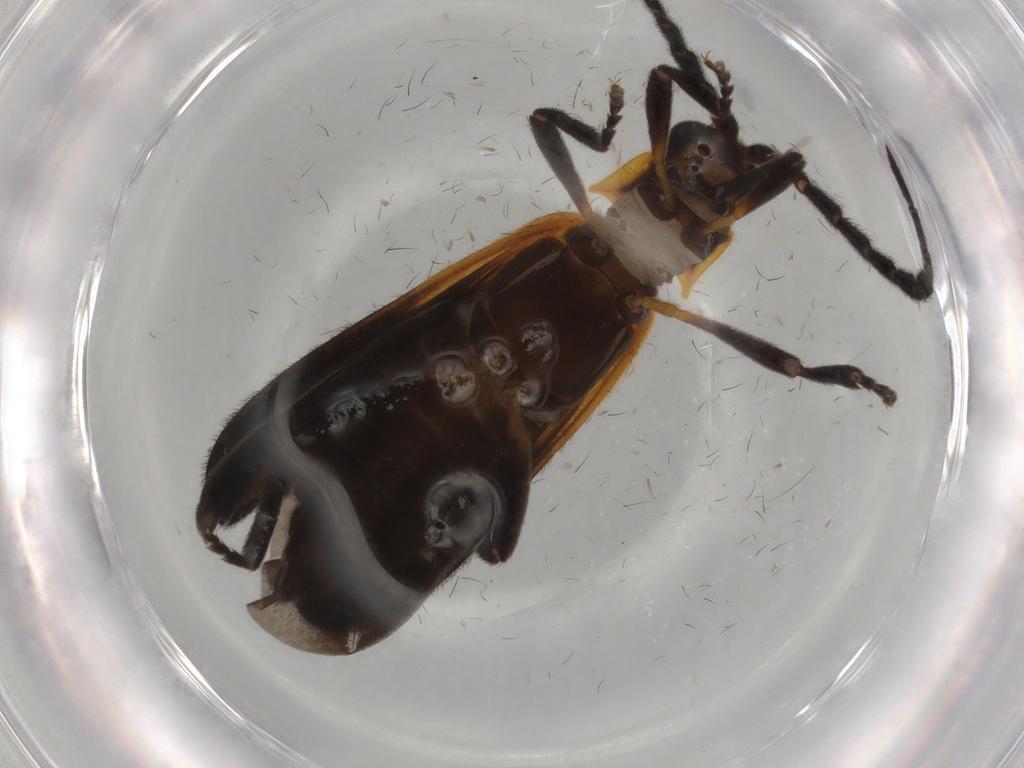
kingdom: Animalia
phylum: Arthropoda
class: Insecta
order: Coleoptera
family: Lycidae
